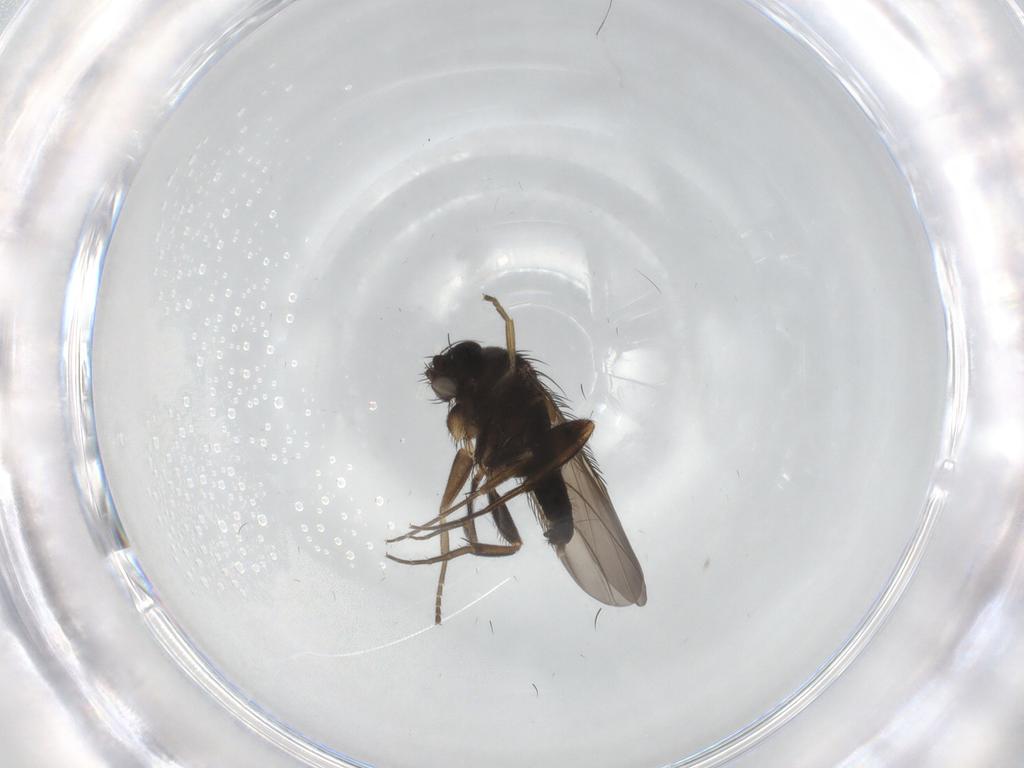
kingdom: Animalia
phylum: Arthropoda
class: Insecta
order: Diptera
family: Phoridae
